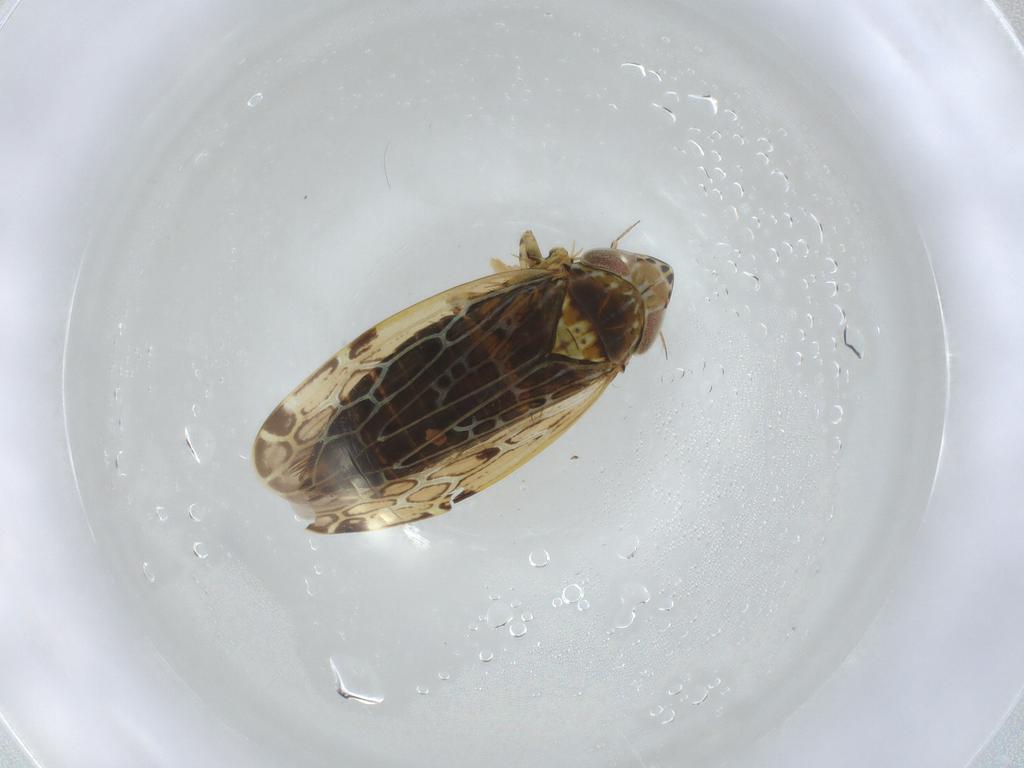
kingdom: Animalia
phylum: Arthropoda
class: Insecta
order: Hemiptera
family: Cicadellidae
